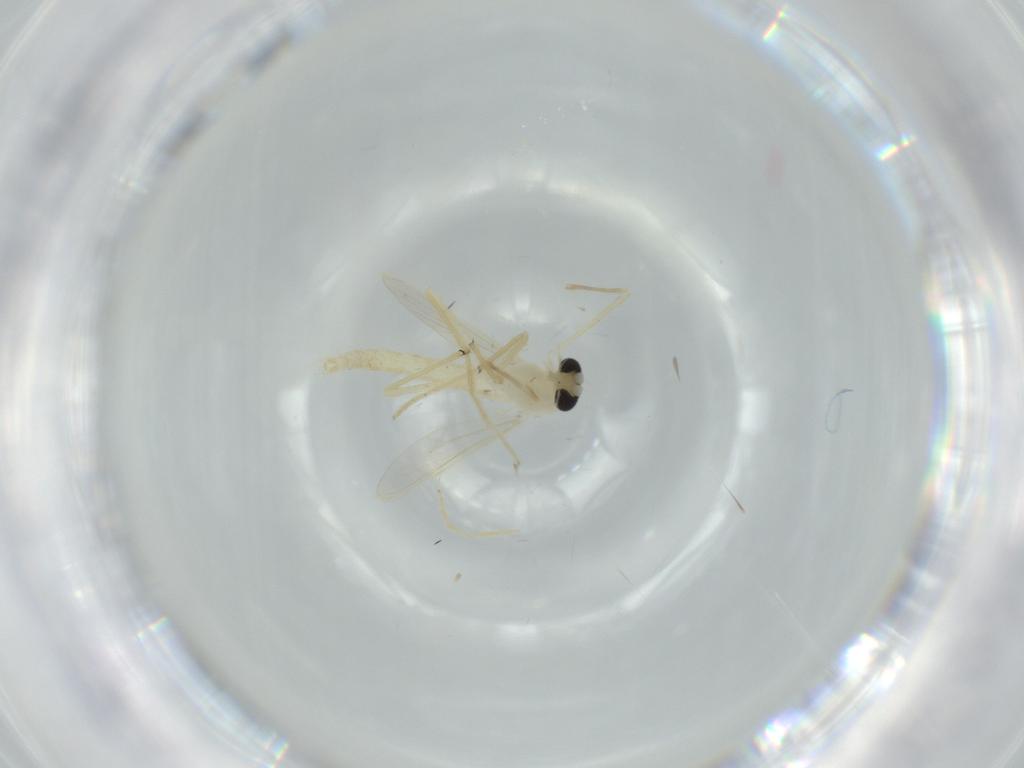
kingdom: Animalia
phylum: Arthropoda
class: Insecta
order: Diptera
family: Chironomidae
